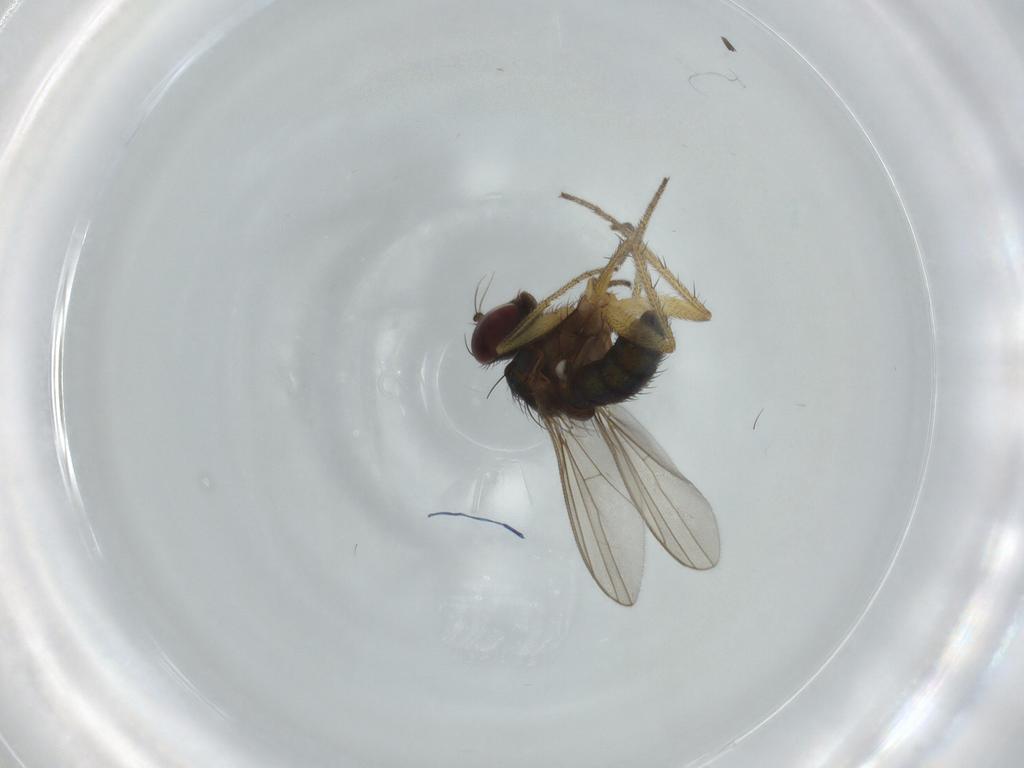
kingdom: Animalia
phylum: Arthropoda
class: Insecta
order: Diptera
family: Dolichopodidae
